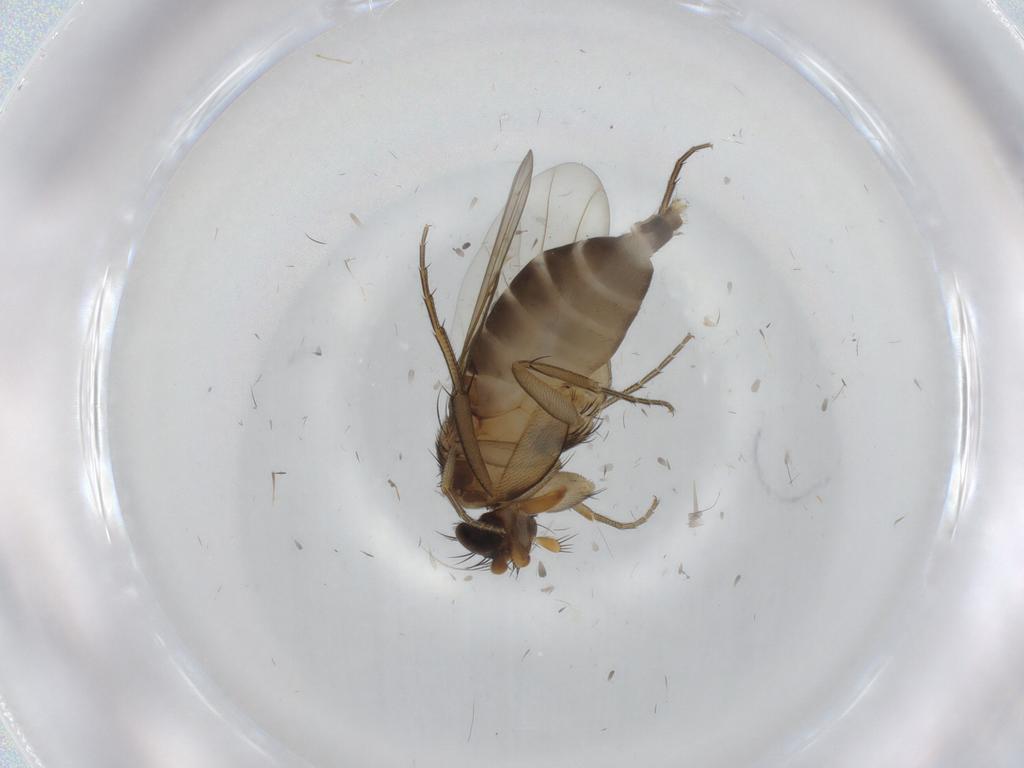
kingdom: Animalia
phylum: Arthropoda
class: Insecta
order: Diptera
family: Phoridae
